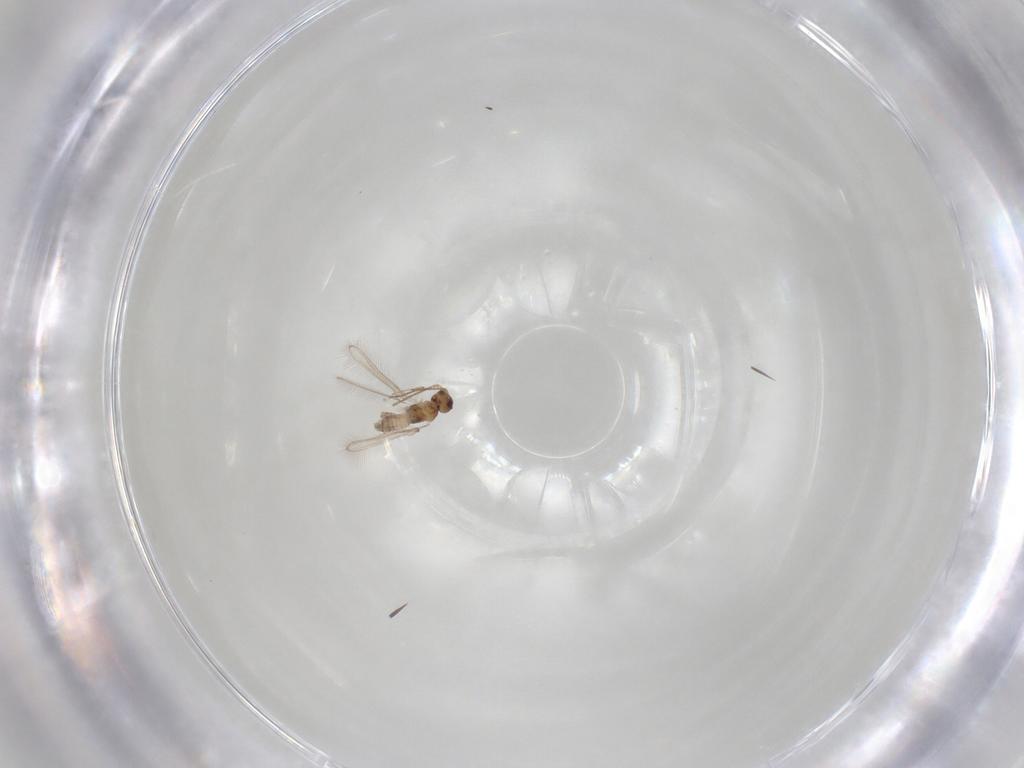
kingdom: Animalia
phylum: Arthropoda
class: Insecta
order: Hymenoptera
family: Mymaridae
